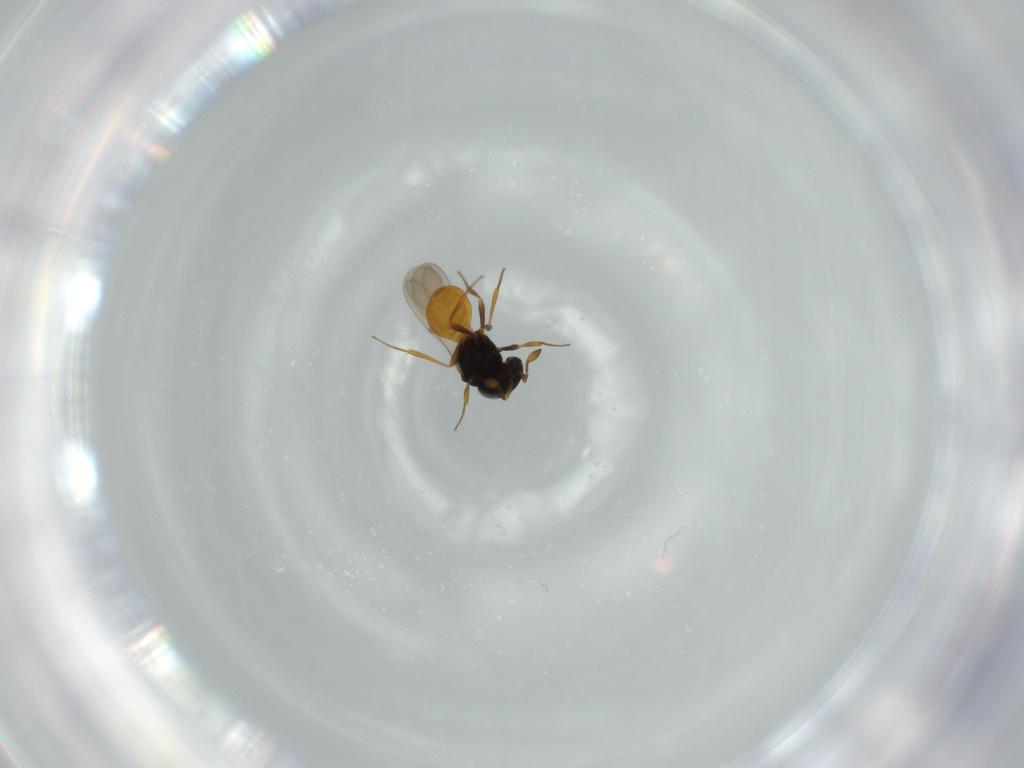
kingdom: Animalia
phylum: Arthropoda
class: Insecta
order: Hymenoptera
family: Scelionidae
